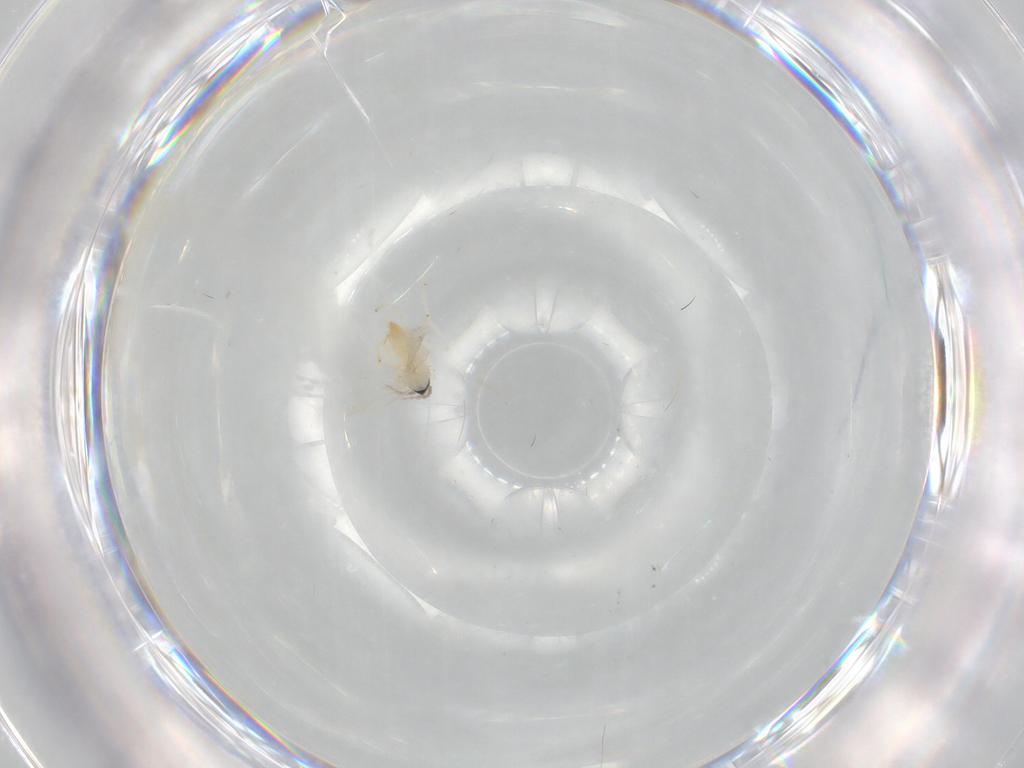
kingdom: Animalia
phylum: Arthropoda
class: Insecta
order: Diptera
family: Cecidomyiidae
